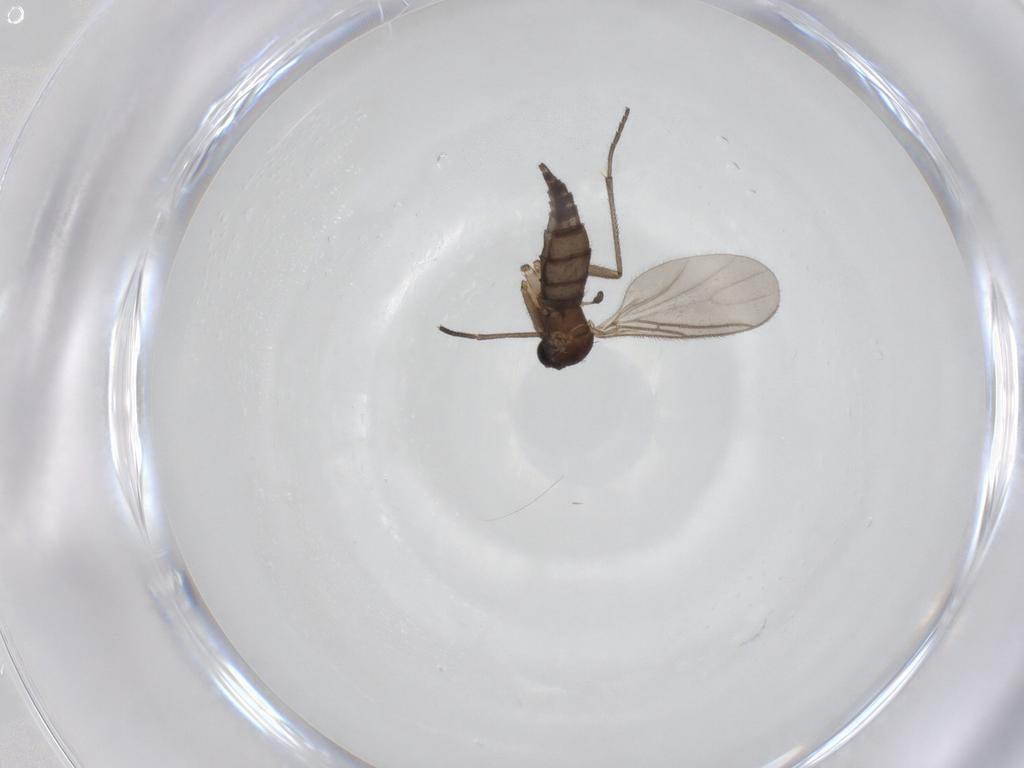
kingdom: Animalia
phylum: Arthropoda
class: Insecta
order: Diptera
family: Sciaridae
